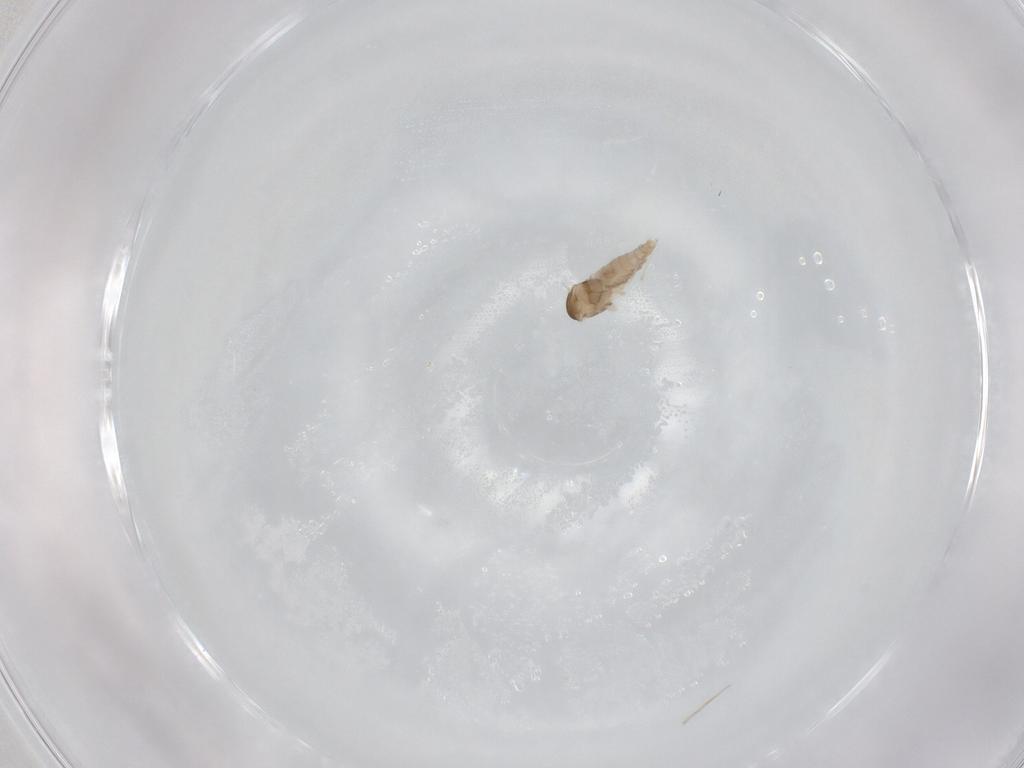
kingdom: Animalia
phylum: Arthropoda
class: Insecta
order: Diptera
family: Cecidomyiidae
